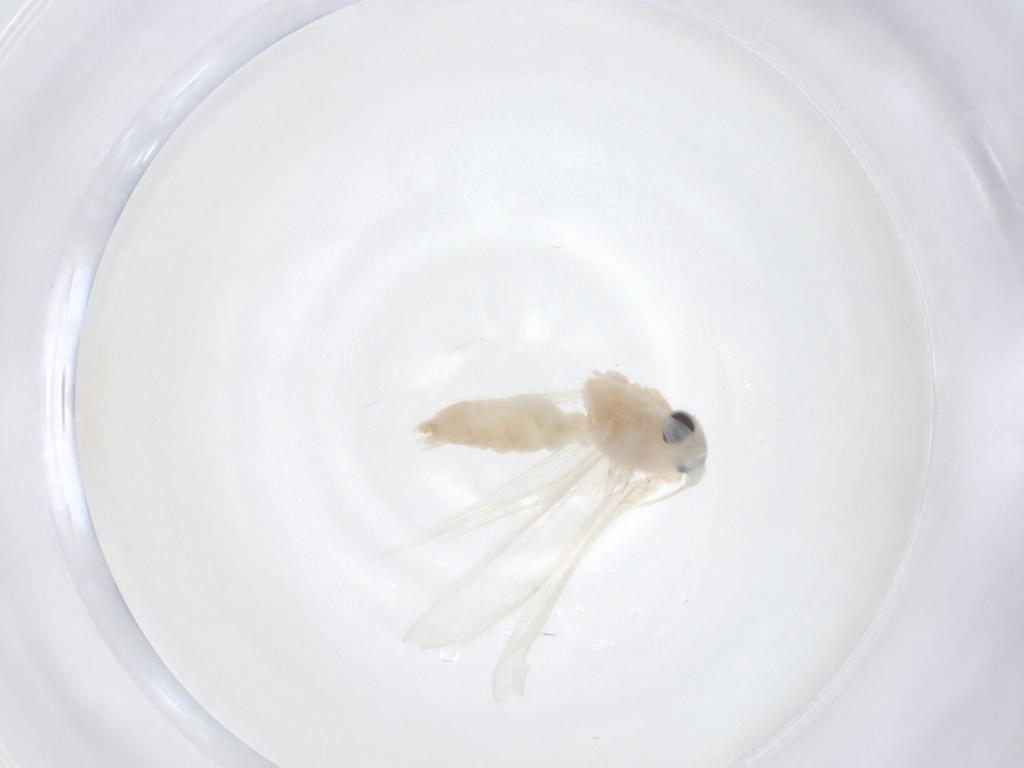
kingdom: Animalia
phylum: Arthropoda
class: Insecta
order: Lepidoptera
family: Lyonetiidae
